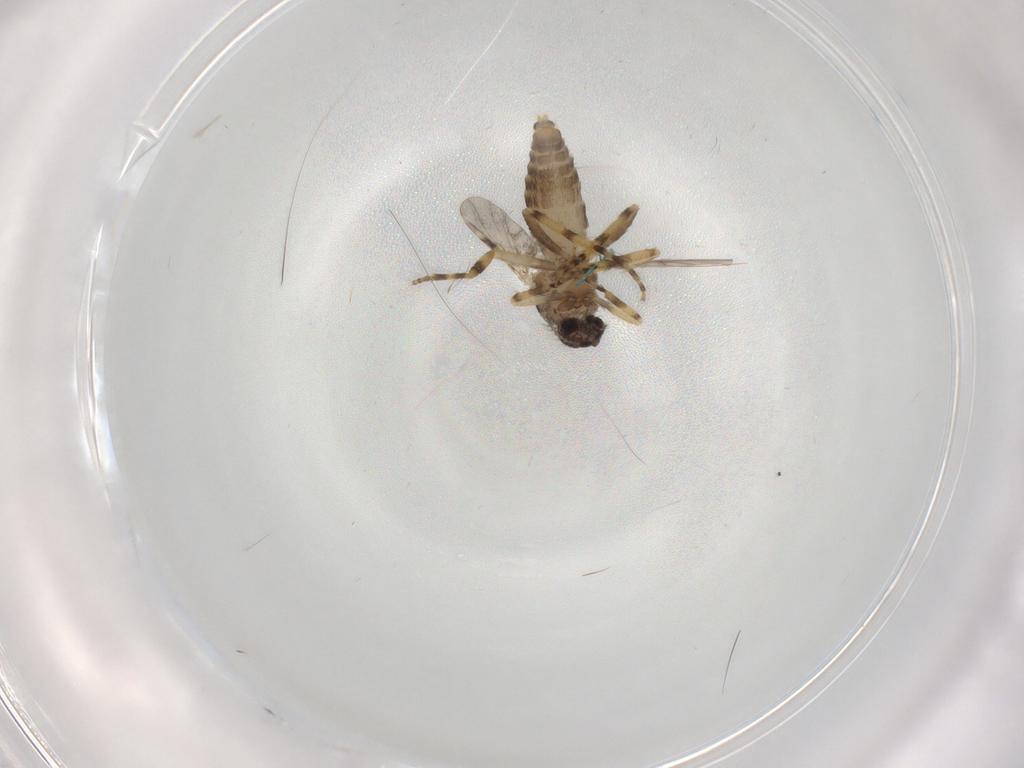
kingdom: Animalia
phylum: Arthropoda
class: Insecta
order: Diptera
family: Ceratopogonidae
